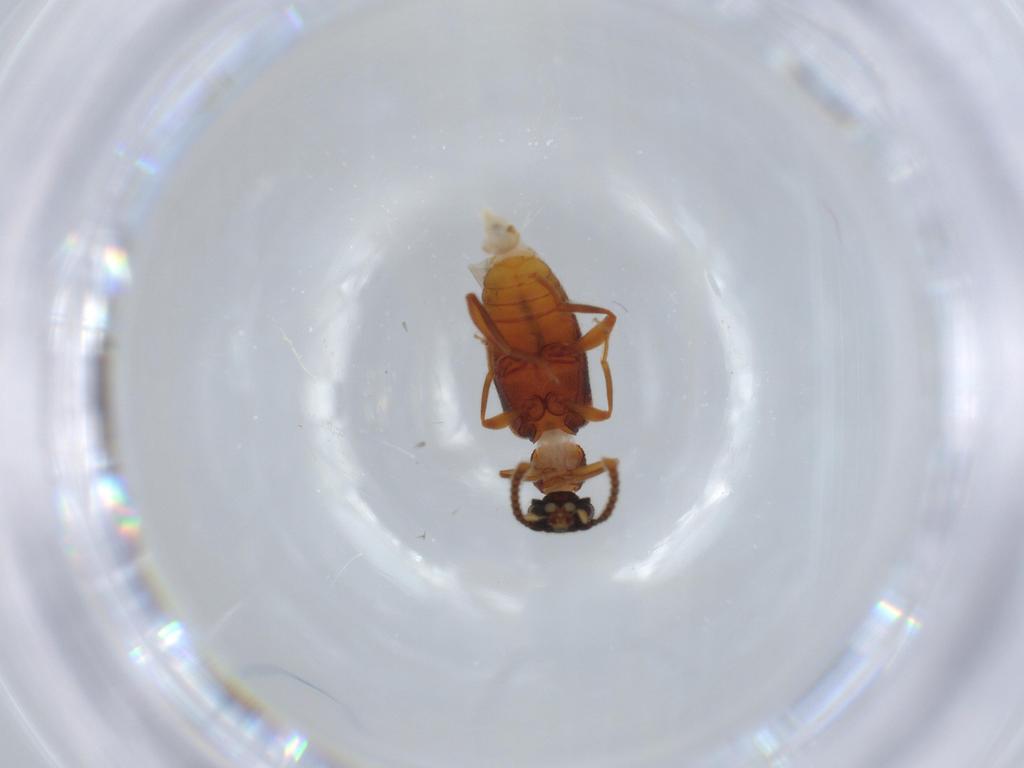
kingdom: Animalia
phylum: Arthropoda
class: Insecta
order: Coleoptera
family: Aderidae
